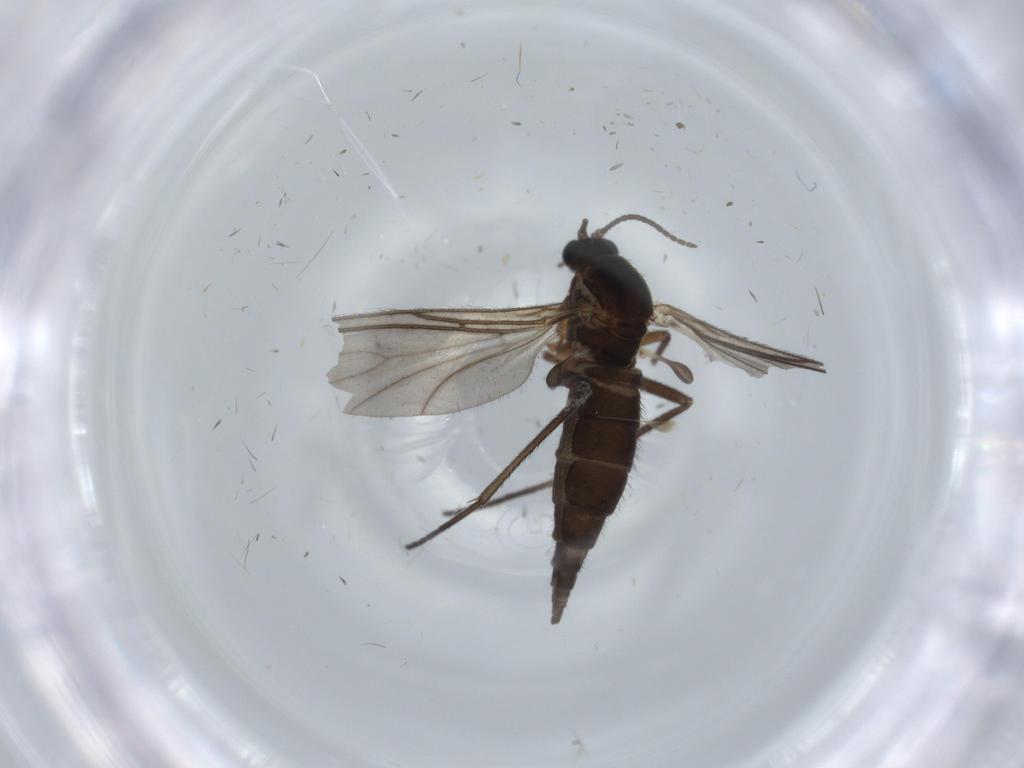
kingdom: Animalia
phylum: Arthropoda
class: Insecta
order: Diptera
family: Sciaridae
